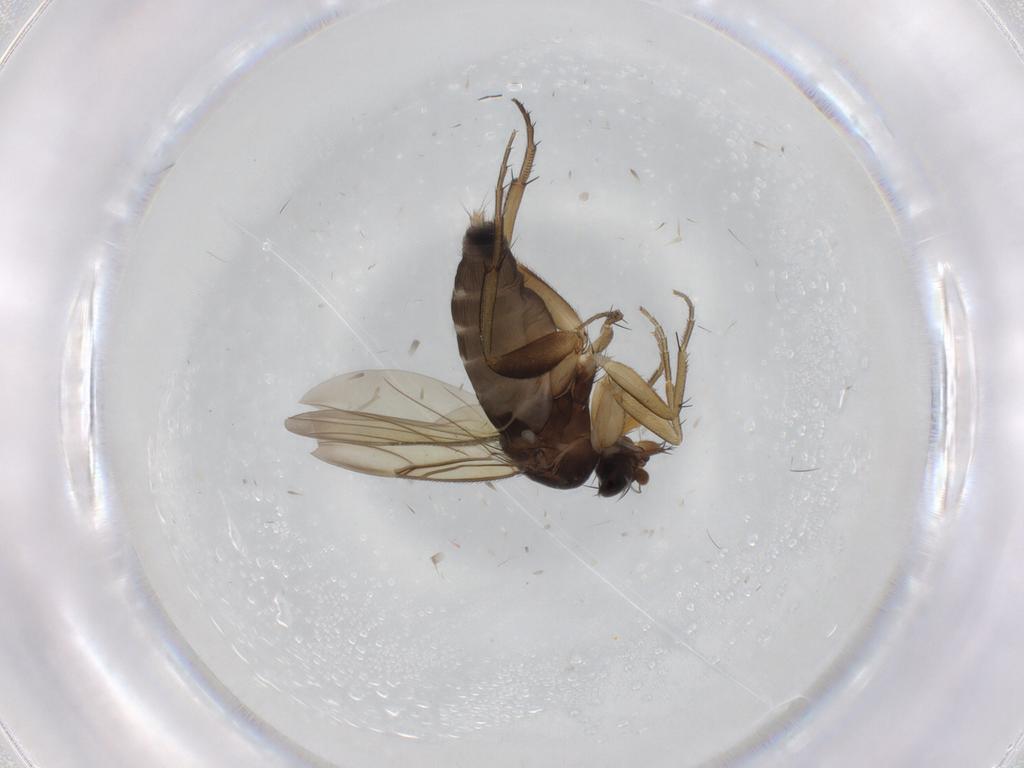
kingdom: Animalia
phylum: Arthropoda
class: Insecta
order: Diptera
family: Phoridae
